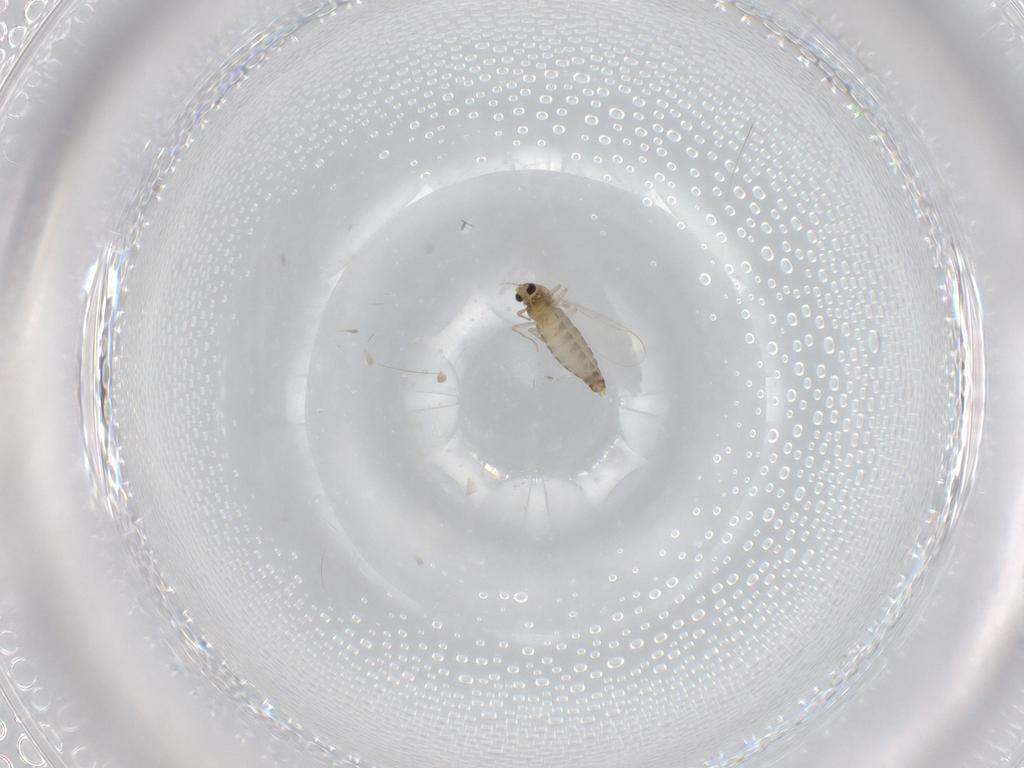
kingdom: Animalia
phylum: Arthropoda
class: Insecta
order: Diptera
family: Chironomidae
